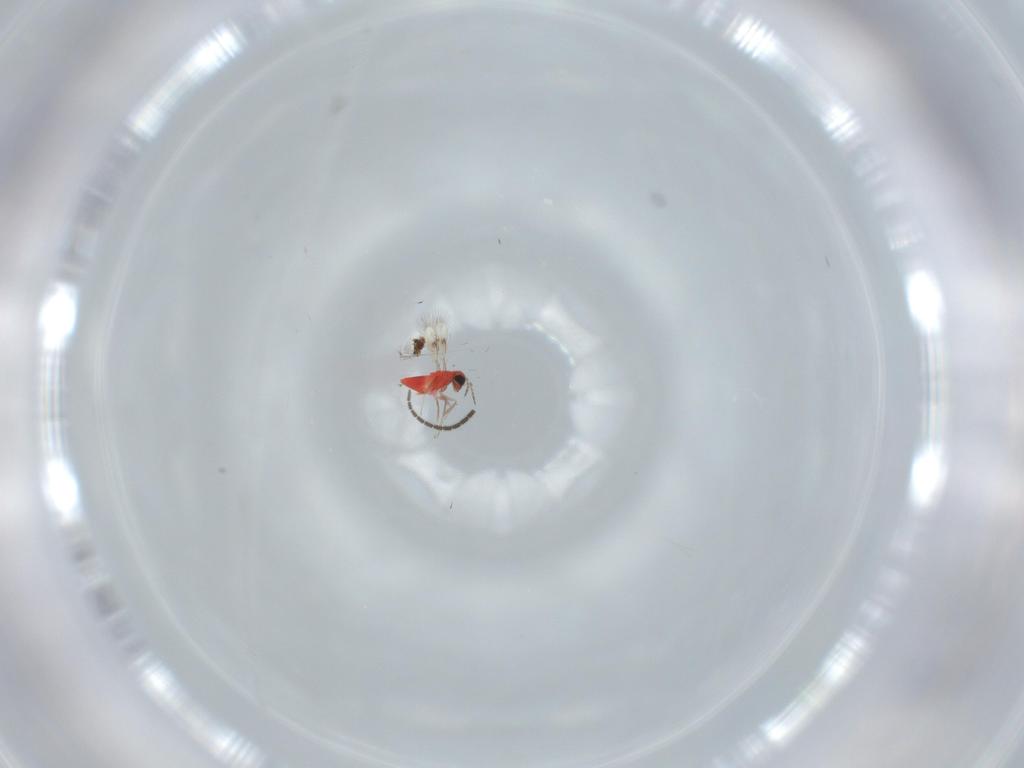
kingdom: Animalia
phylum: Arthropoda
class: Insecta
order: Hymenoptera
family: Trichogrammatidae
